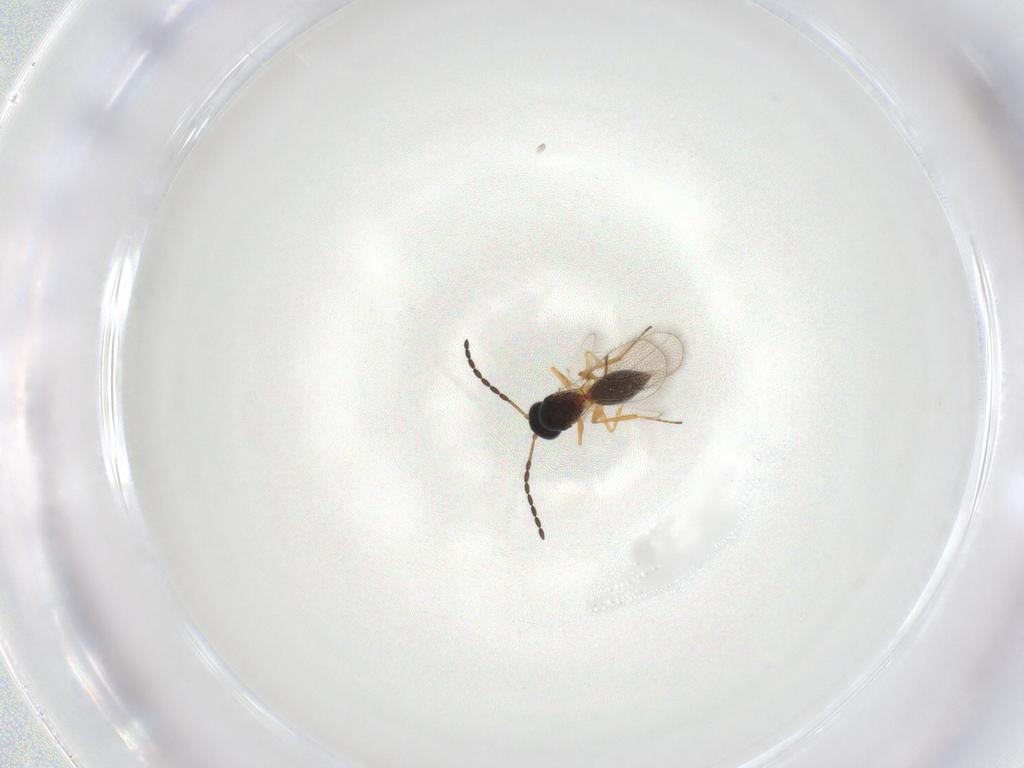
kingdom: Animalia
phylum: Arthropoda
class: Insecta
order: Hymenoptera
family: Figitidae
